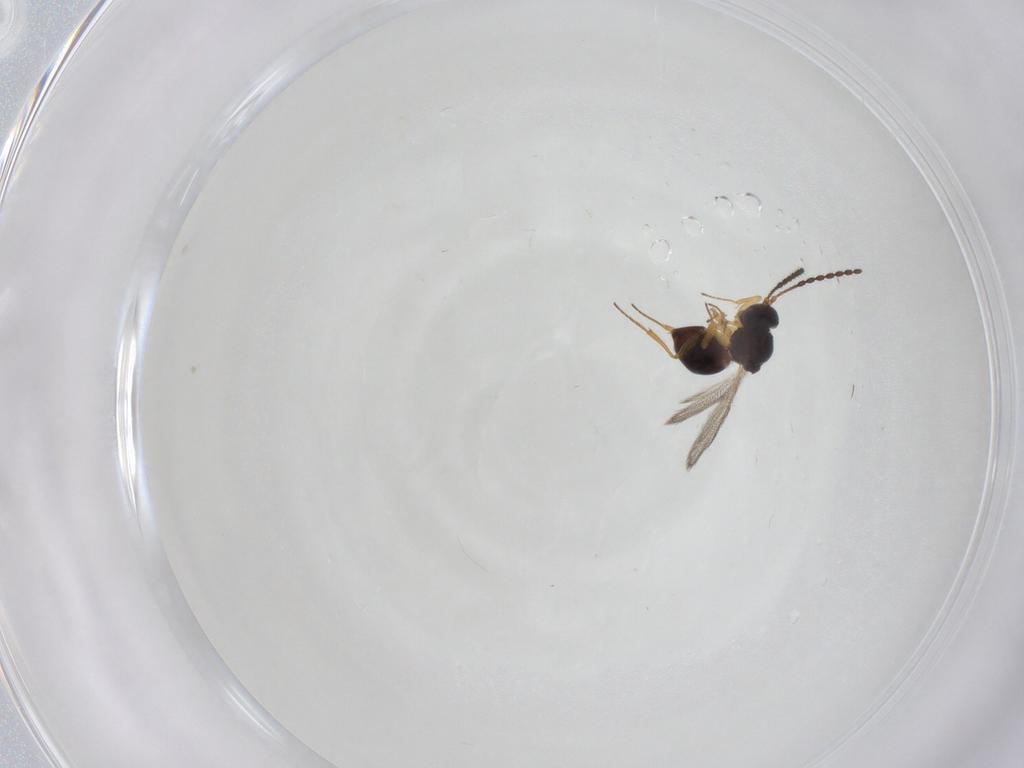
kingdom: Animalia
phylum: Arthropoda
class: Insecta
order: Hymenoptera
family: Figitidae
